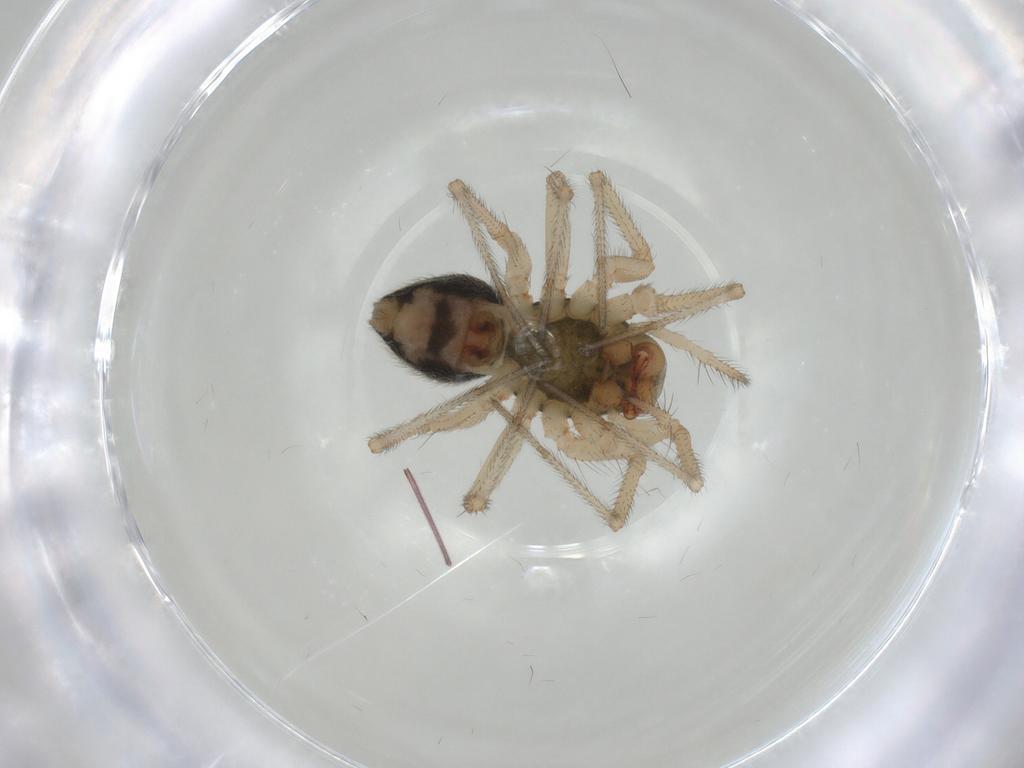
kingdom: Animalia
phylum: Arthropoda
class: Arachnida
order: Araneae
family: Linyphiidae
